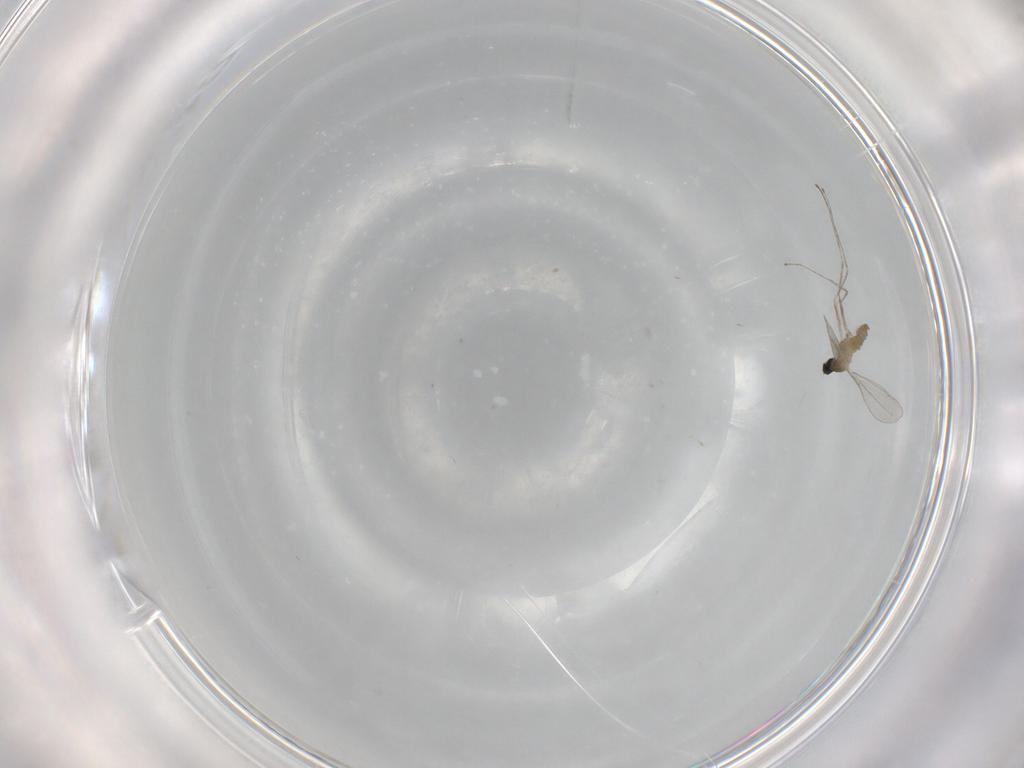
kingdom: Animalia
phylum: Arthropoda
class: Insecta
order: Diptera
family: Cecidomyiidae
